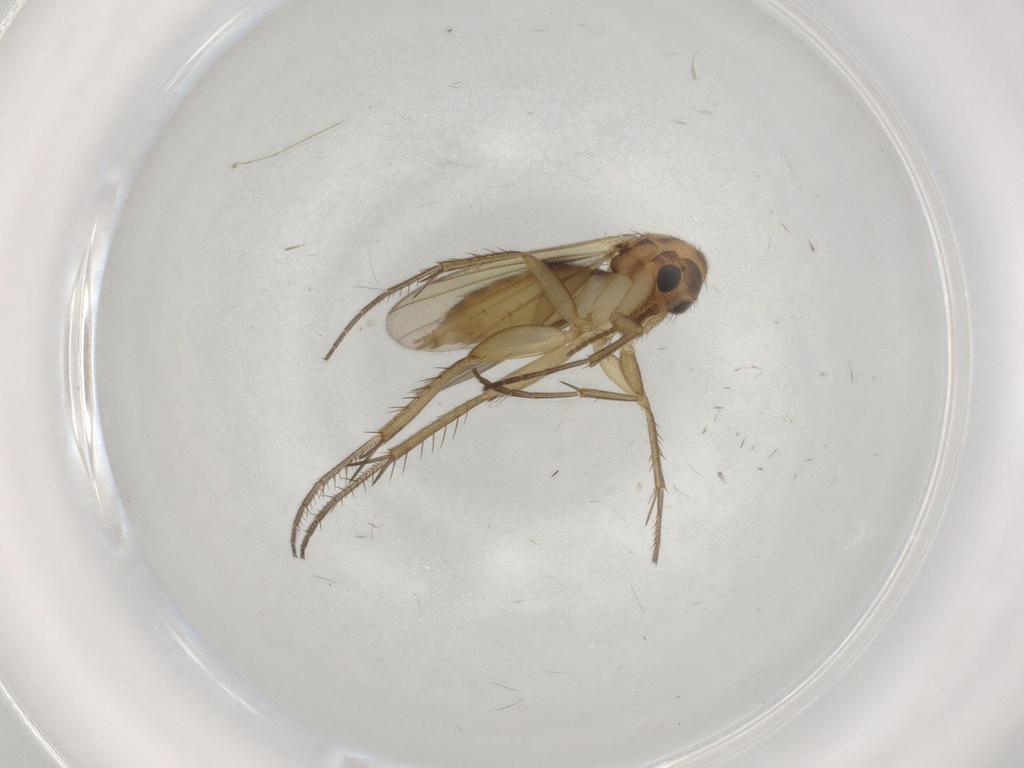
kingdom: Animalia
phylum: Arthropoda
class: Insecta
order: Diptera
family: Mycetophilidae
